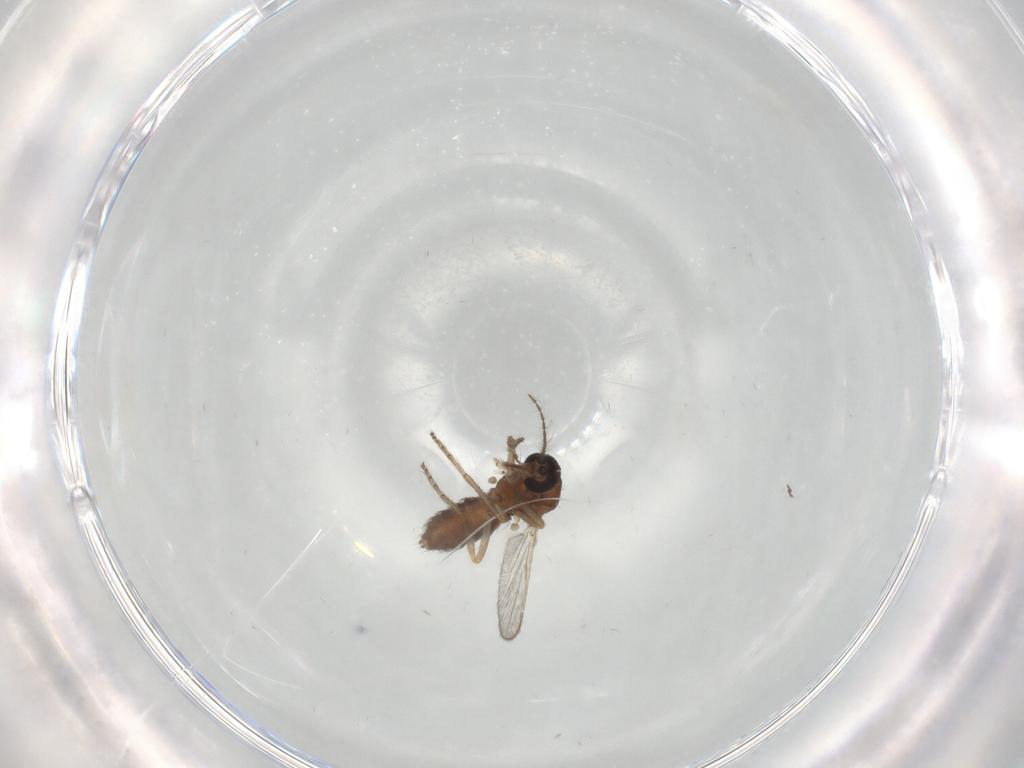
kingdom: Animalia
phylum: Arthropoda
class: Insecta
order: Diptera
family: Ceratopogonidae
